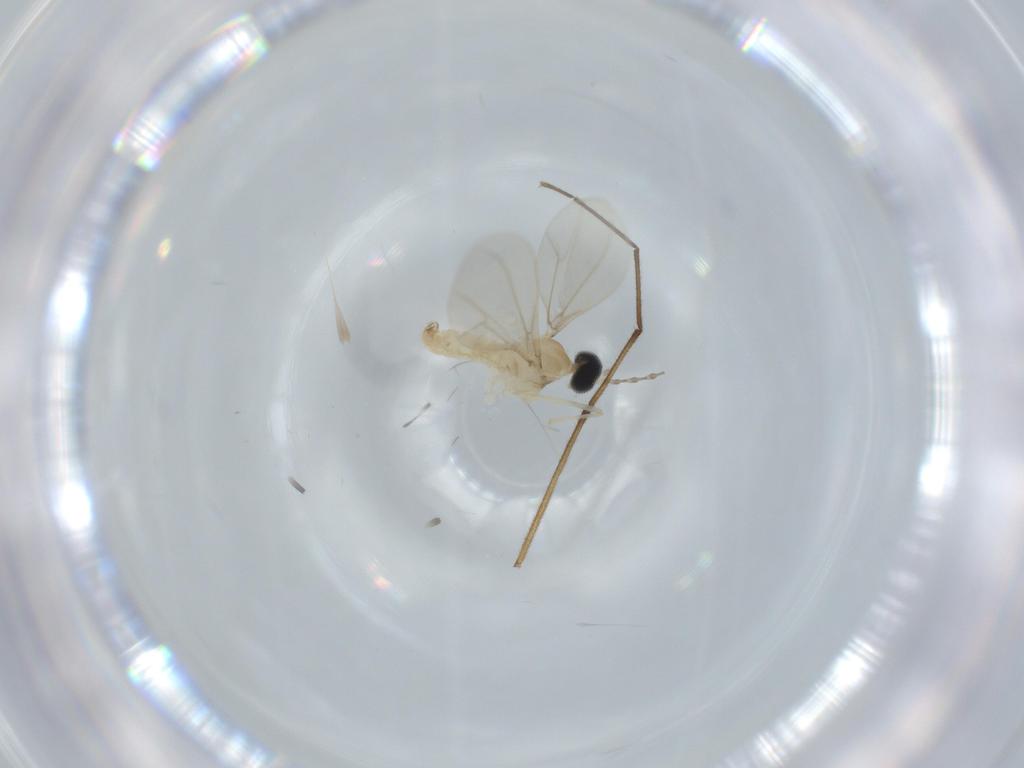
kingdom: Animalia
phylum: Arthropoda
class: Insecta
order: Diptera
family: Cecidomyiidae
